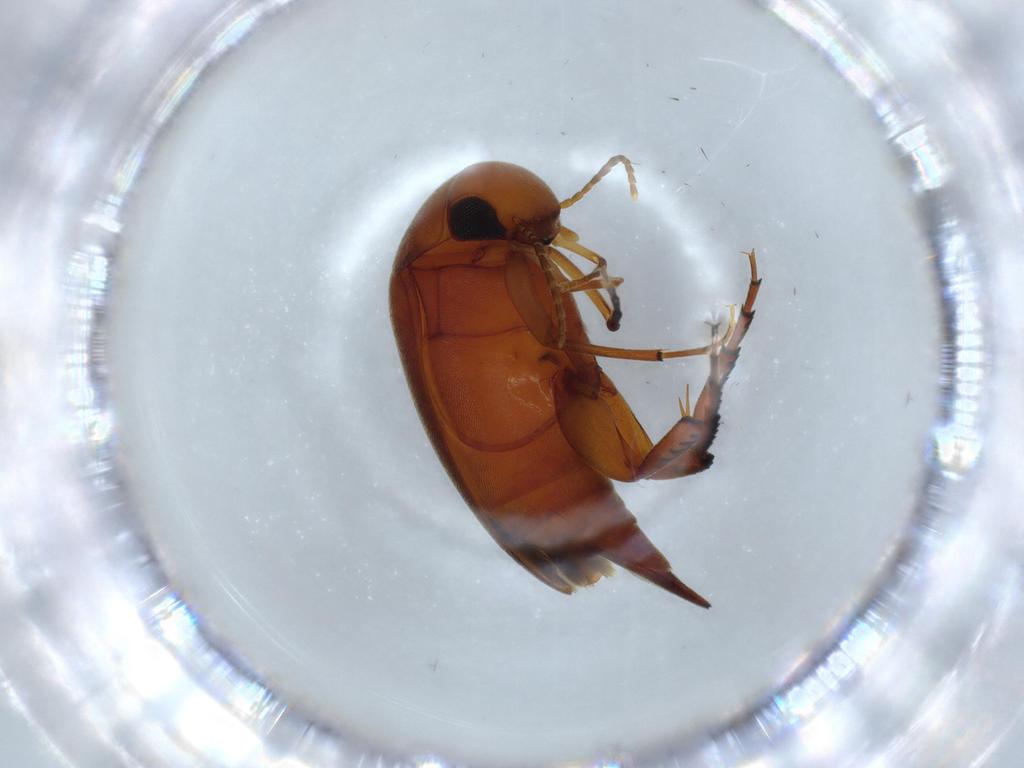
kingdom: Animalia
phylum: Arthropoda
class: Insecta
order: Coleoptera
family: Mordellidae
